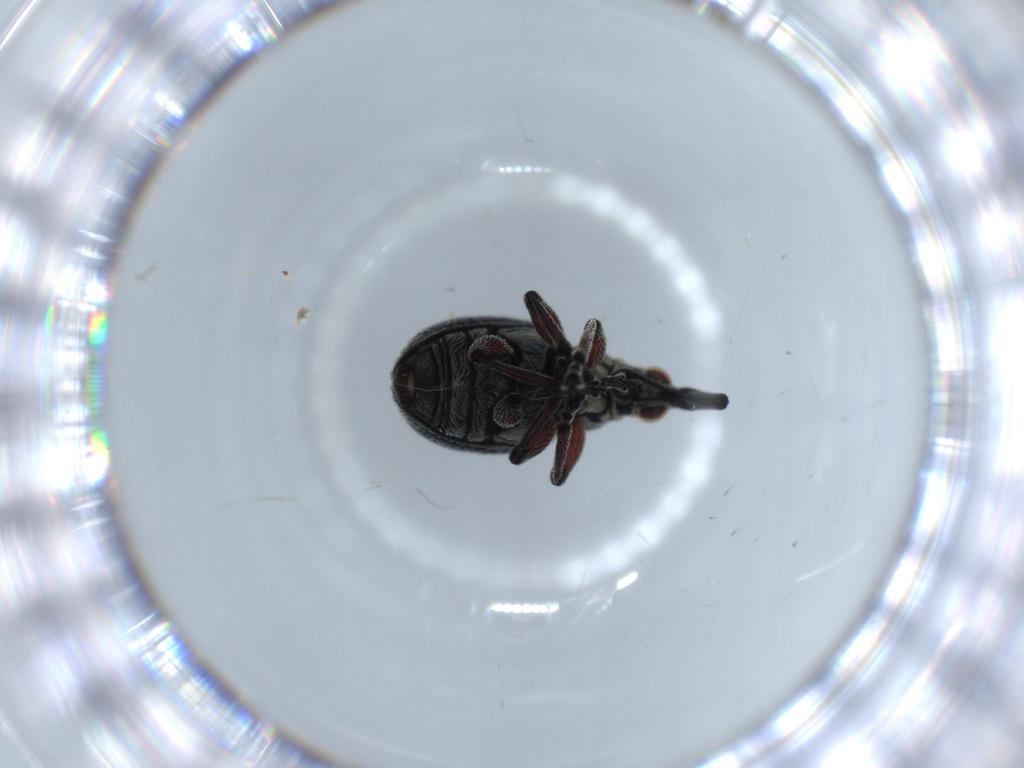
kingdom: Animalia
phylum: Arthropoda
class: Insecta
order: Coleoptera
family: Brentidae
